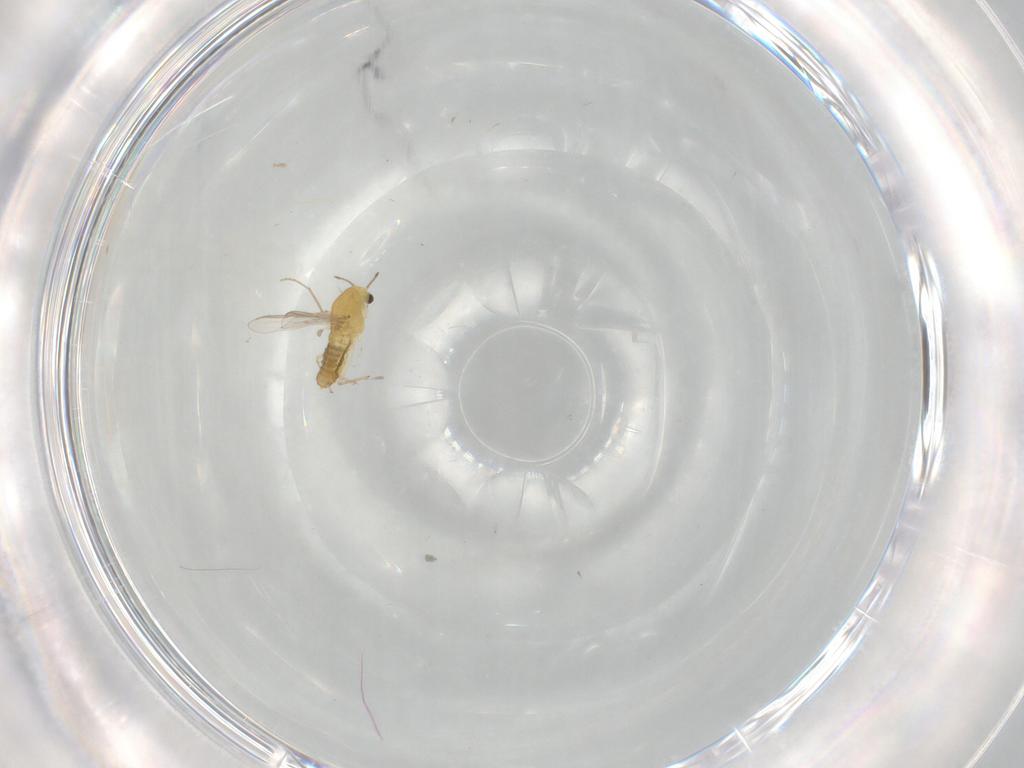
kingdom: Animalia
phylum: Arthropoda
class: Insecta
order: Diptera
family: Chironomidae
